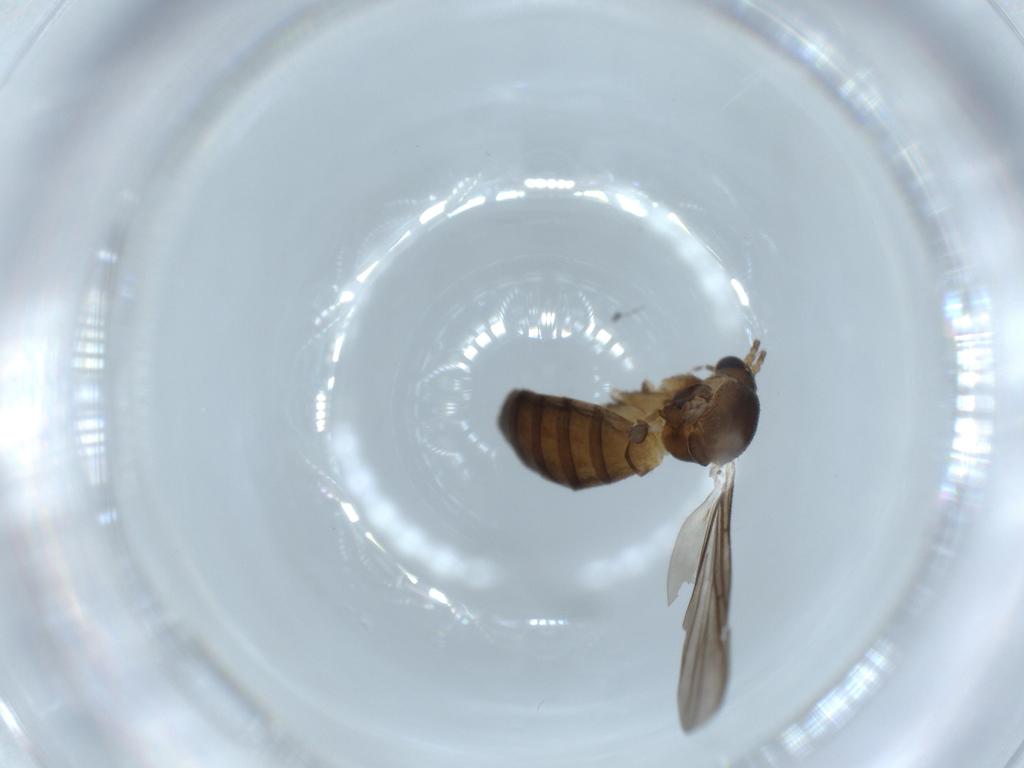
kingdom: Animalia
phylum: Arthropoda
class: Insecta
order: Diptera
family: Mycetophilidae
